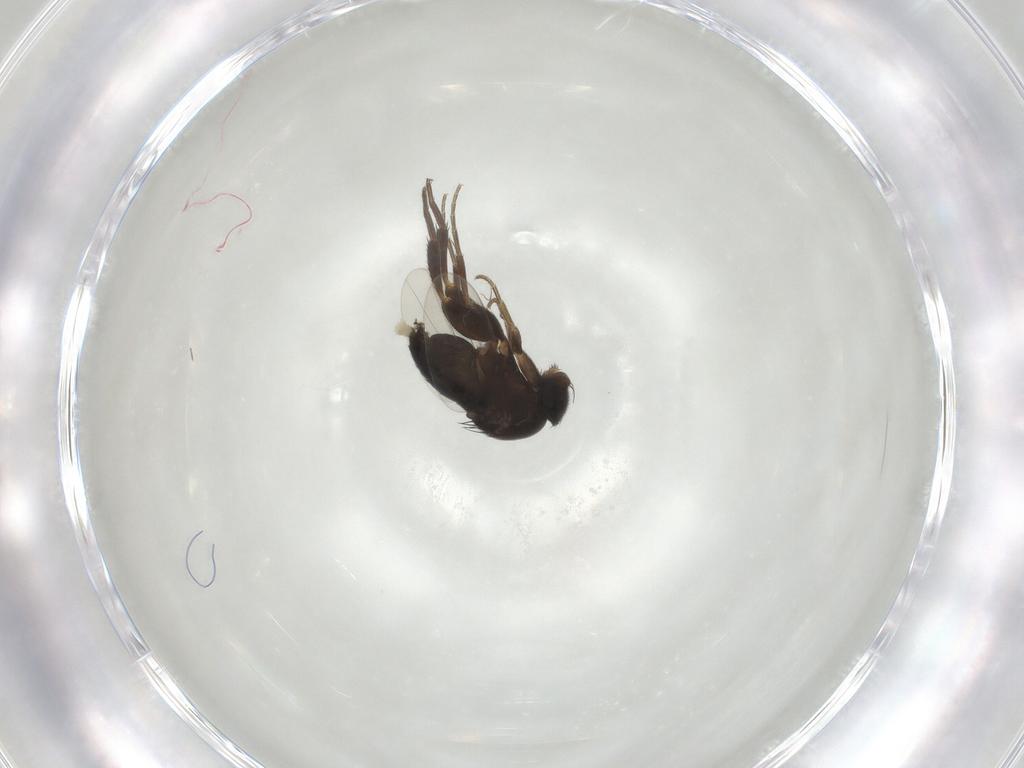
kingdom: Animalia
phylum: Arthropoda
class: Insecta
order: Diptera
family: Phoridae
